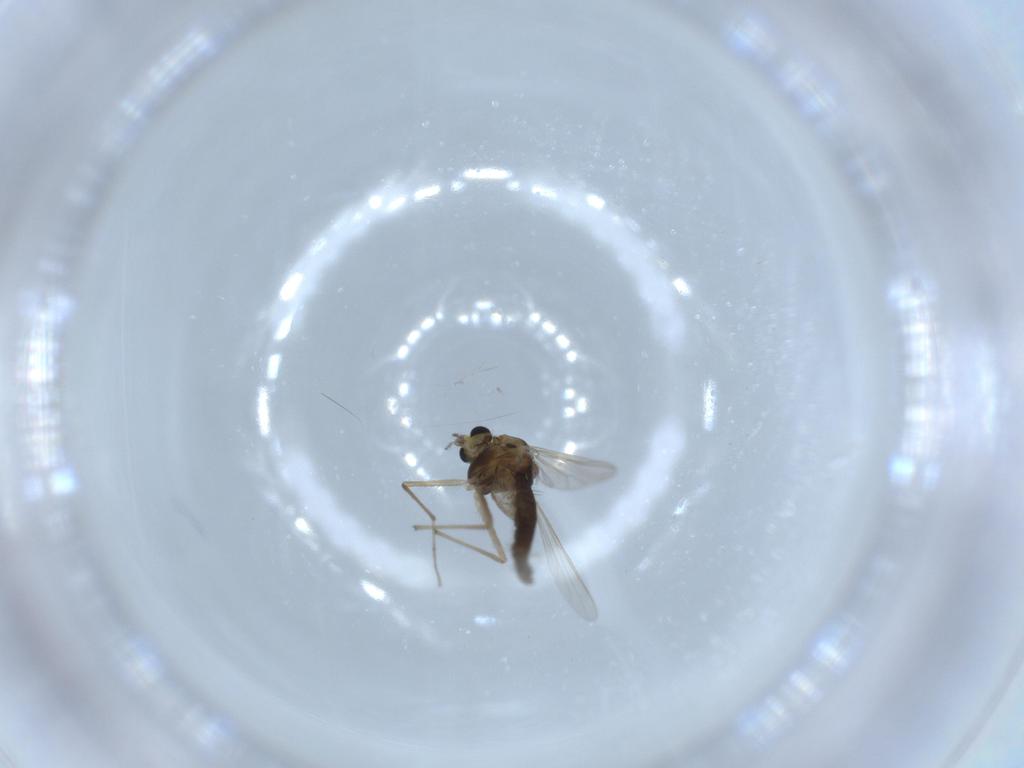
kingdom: Animalia
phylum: Arthropoda
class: Insecta
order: Diptera
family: Chironomidae
